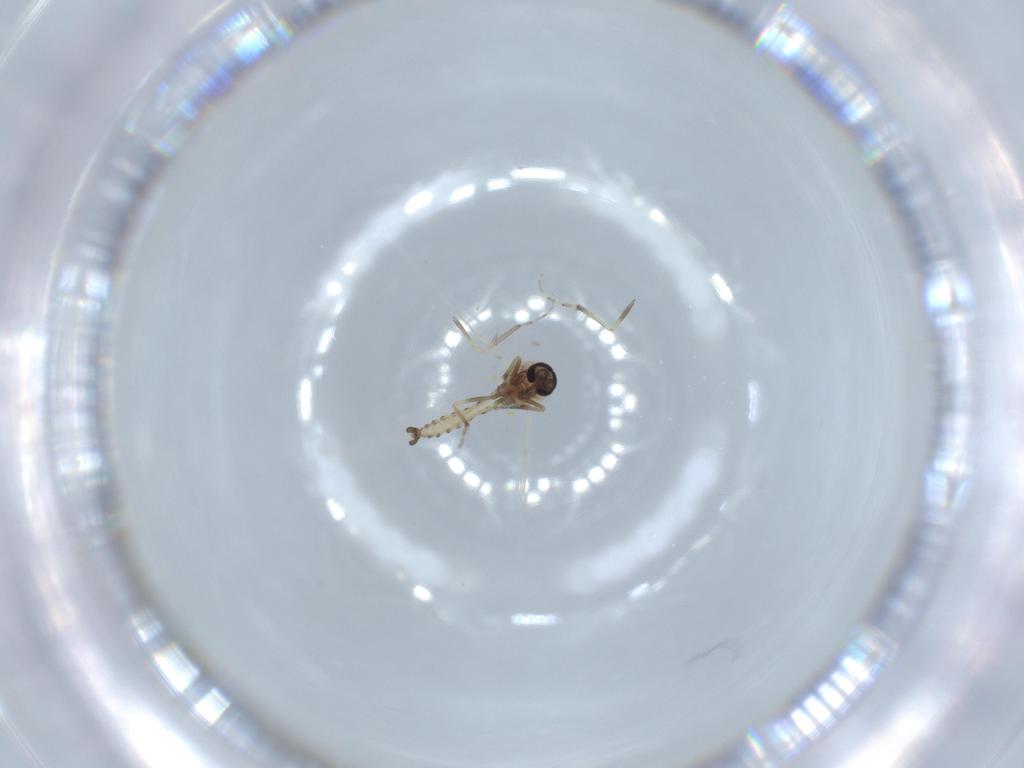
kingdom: Animalia
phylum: Arthropoda
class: Insecta
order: Diptera
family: Ceratopogonidae
